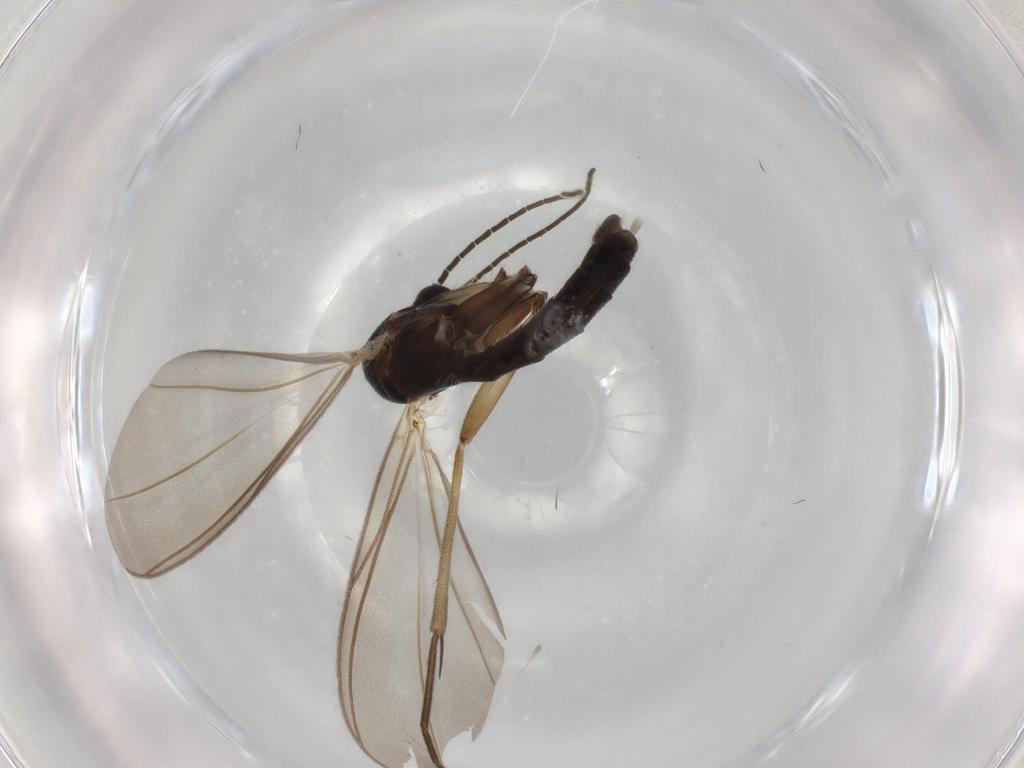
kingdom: Animalia
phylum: Arthropoda
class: Insecta
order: Diptera
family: Mycetophilidae
